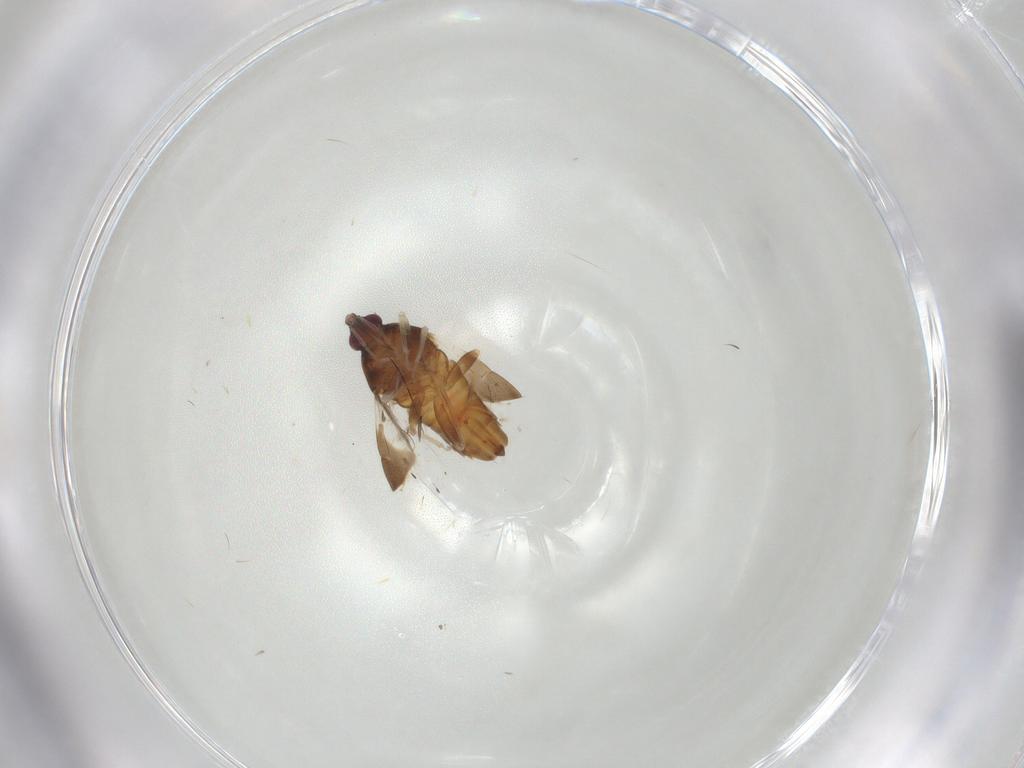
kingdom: Animalia
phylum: Arthropoda
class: Insecta
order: Hemiptera
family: Anthocoridae
